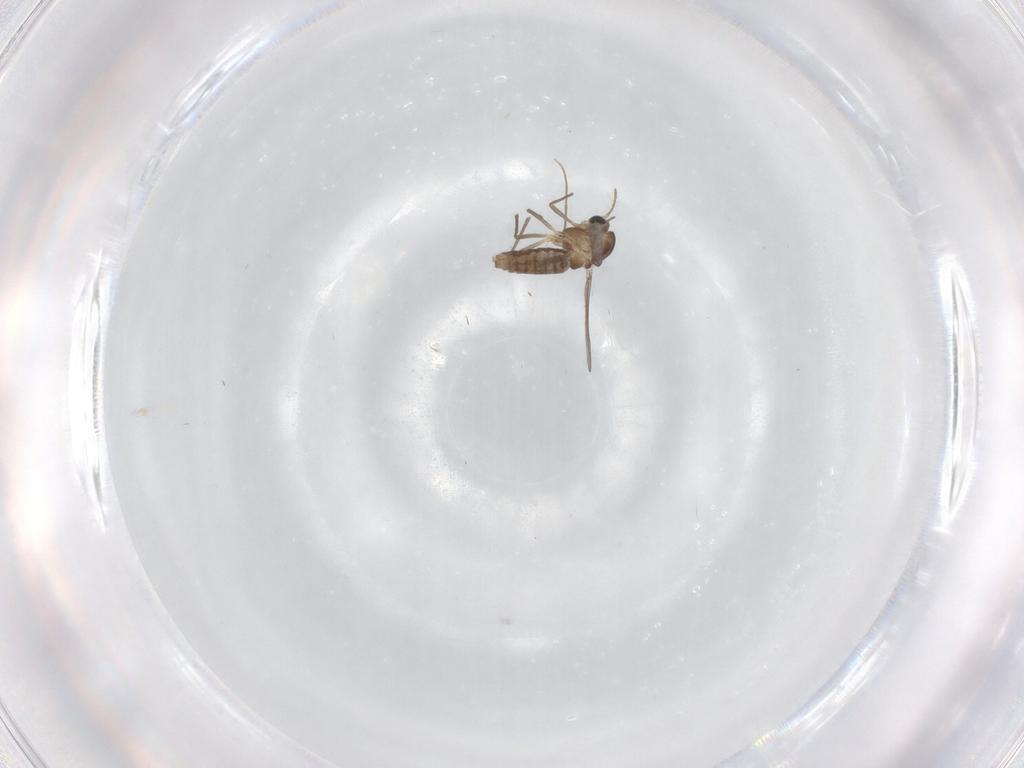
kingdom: Animalia
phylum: Arthropoda
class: Insecta
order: Diptera
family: Chironomidae
